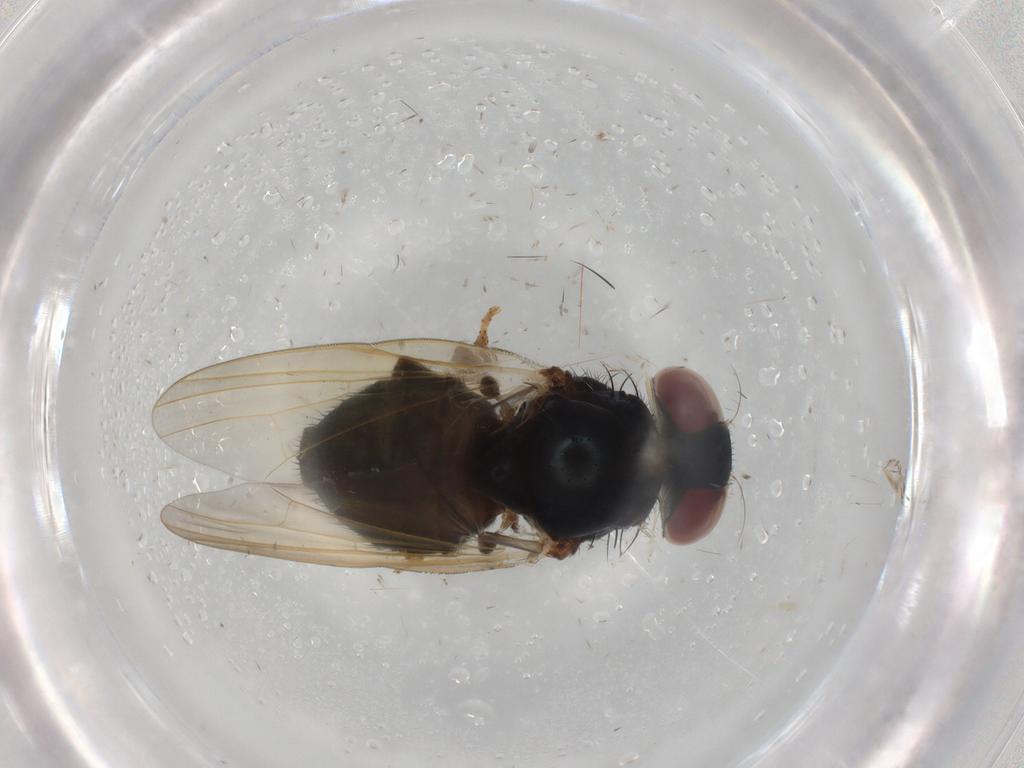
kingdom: Animalia
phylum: Arthropoda
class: Insecta
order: Diptera
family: Lonchaeidae
